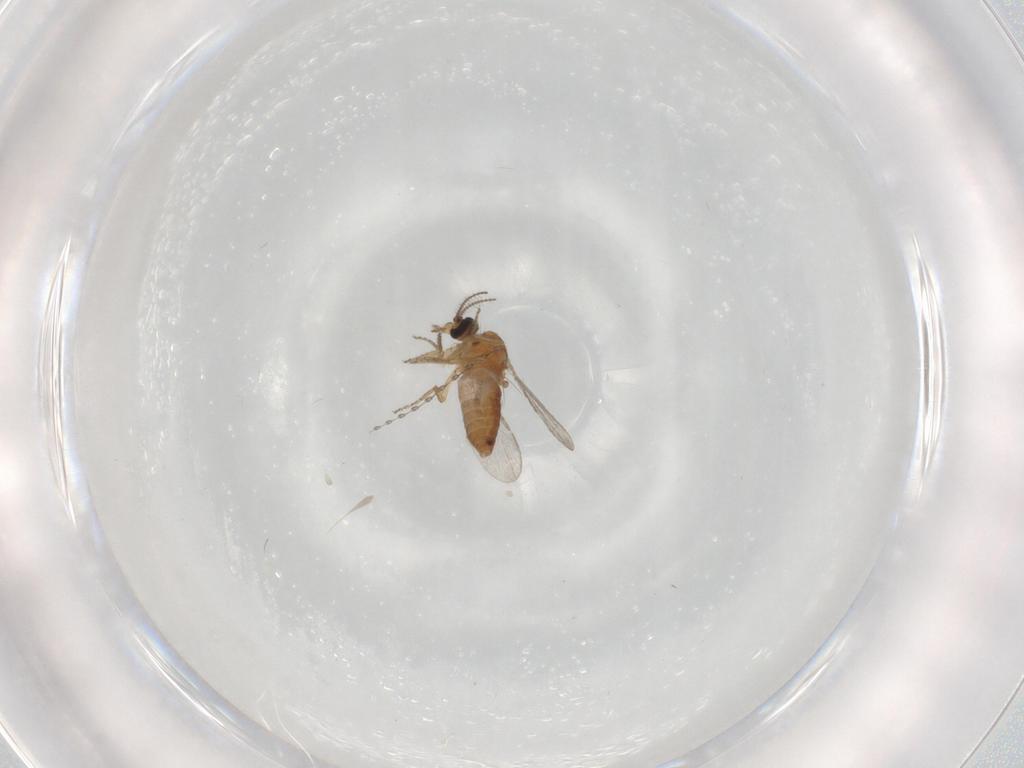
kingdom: Animalia
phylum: Arthropoda
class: Insecta
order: Diptera
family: Ceratopogonidae
